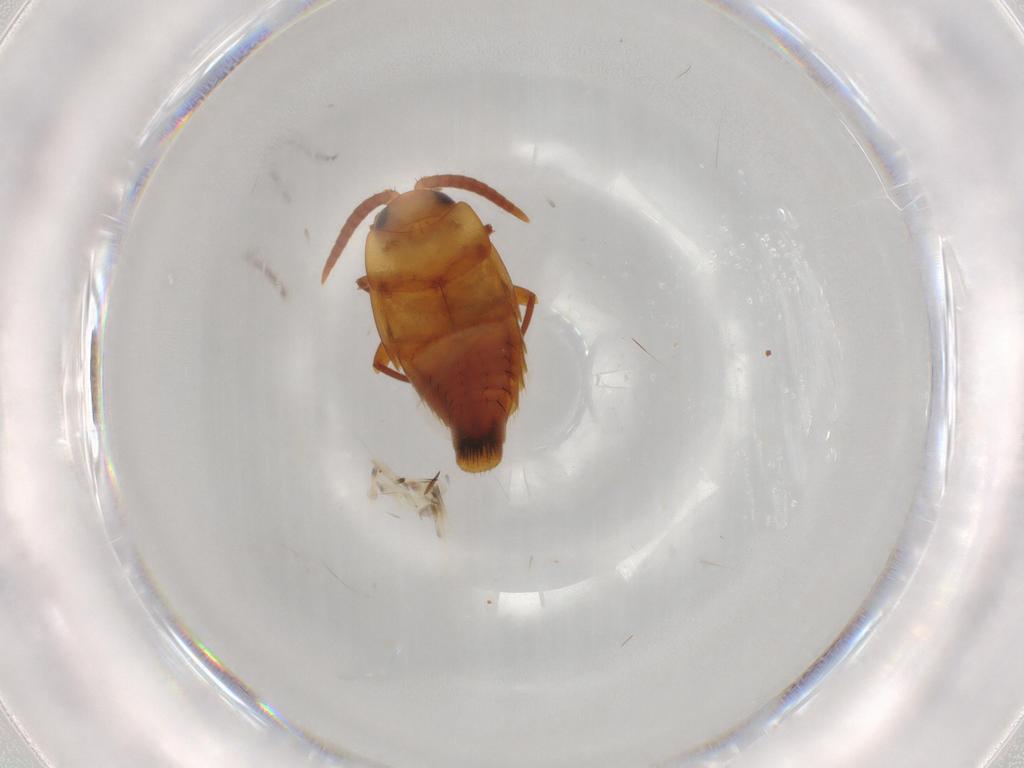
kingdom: Animalia
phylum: Arthropoda
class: Insecta
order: Coleoptera
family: Staphylinidae
